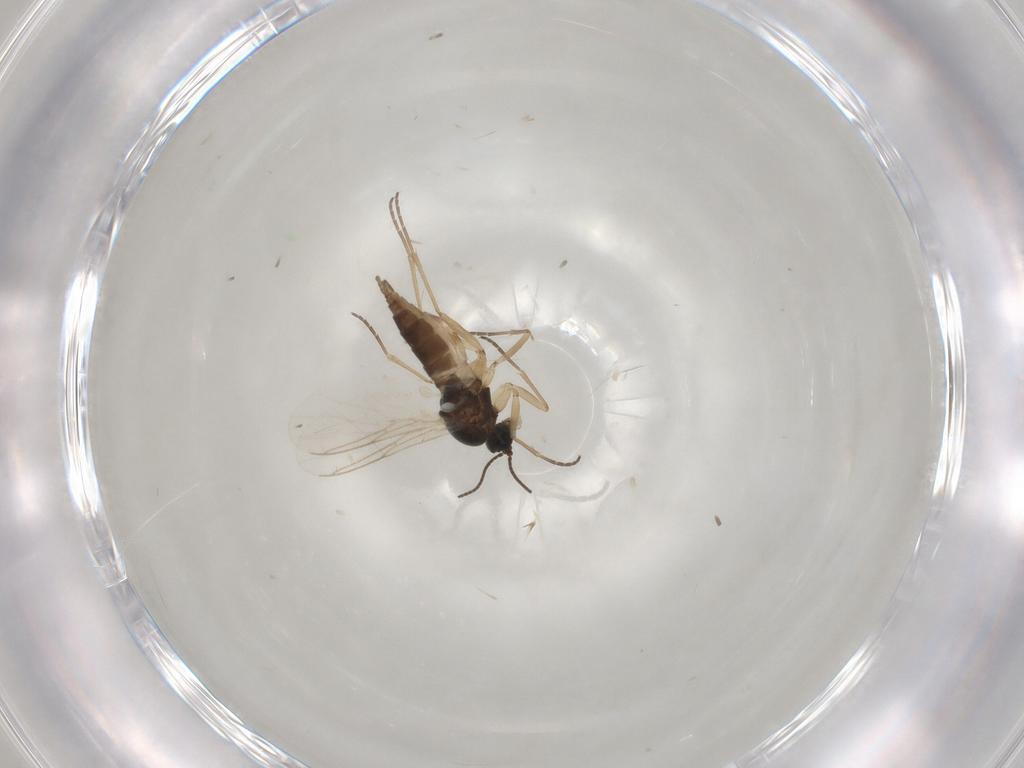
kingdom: Animalia
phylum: Arthropoda
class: Insecta
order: Diptera
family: Sciaridae
